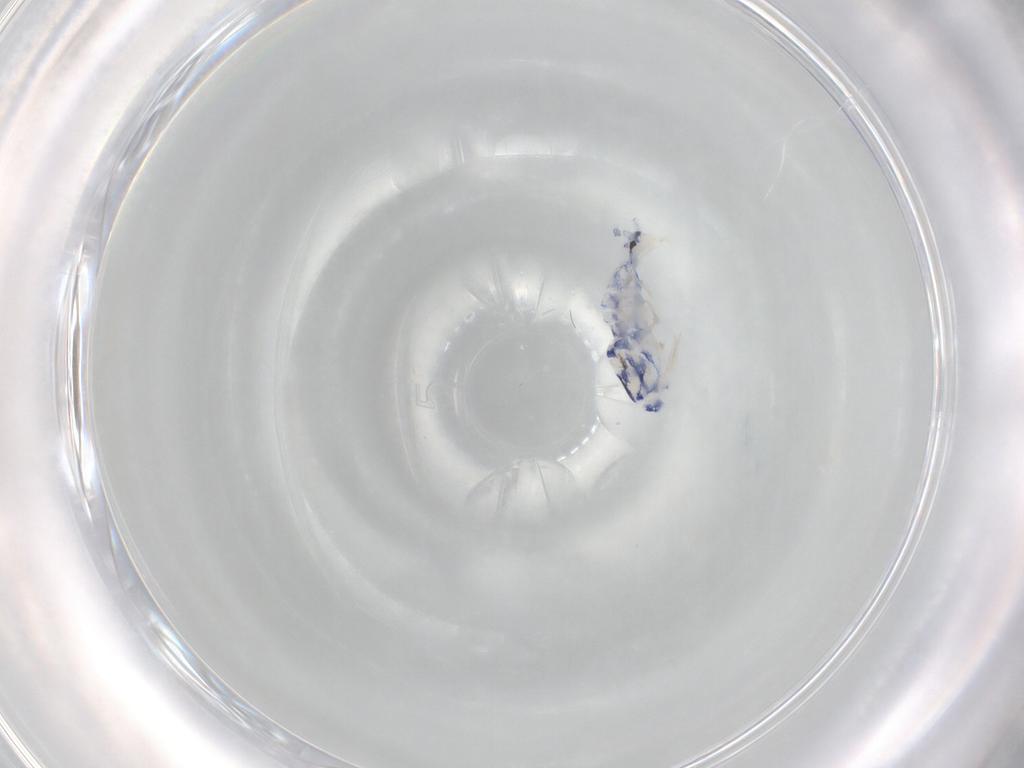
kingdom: Animalia
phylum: Arthropoda
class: Collembola
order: Entomobryomorpha
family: Entomobryidae
